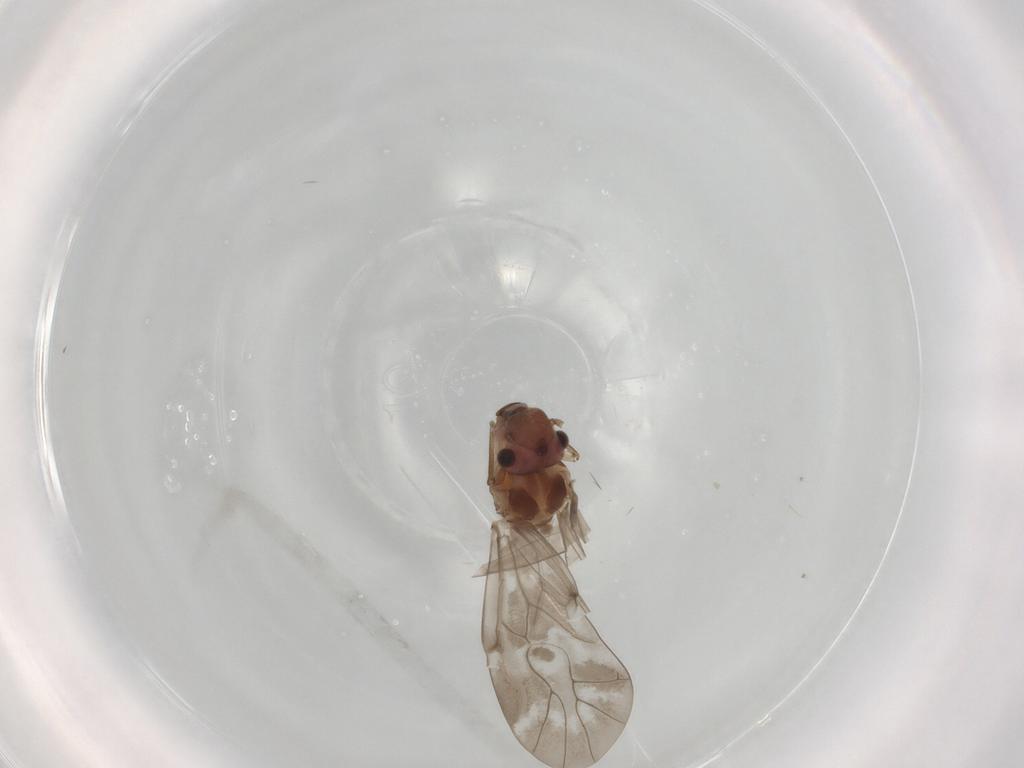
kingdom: Animalia
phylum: Arthropoda
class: Insecta
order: Psocodea
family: Peripsocidae
